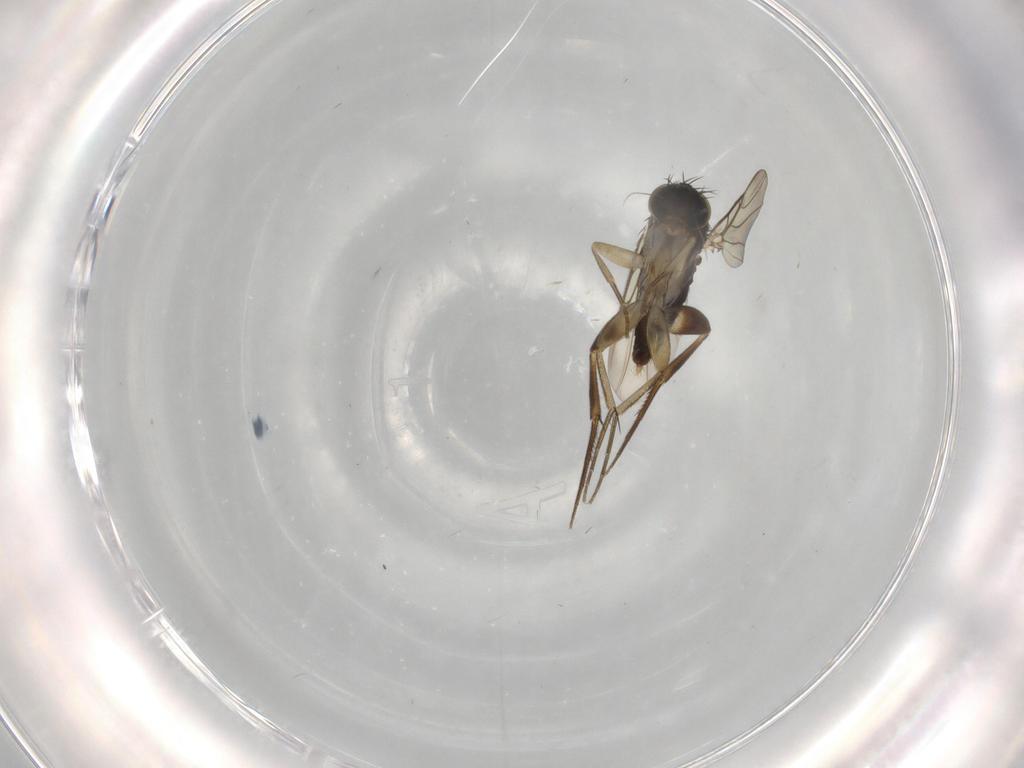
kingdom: Animalia
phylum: Arthropoda
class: Insecta
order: Diptera
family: Phoridae
